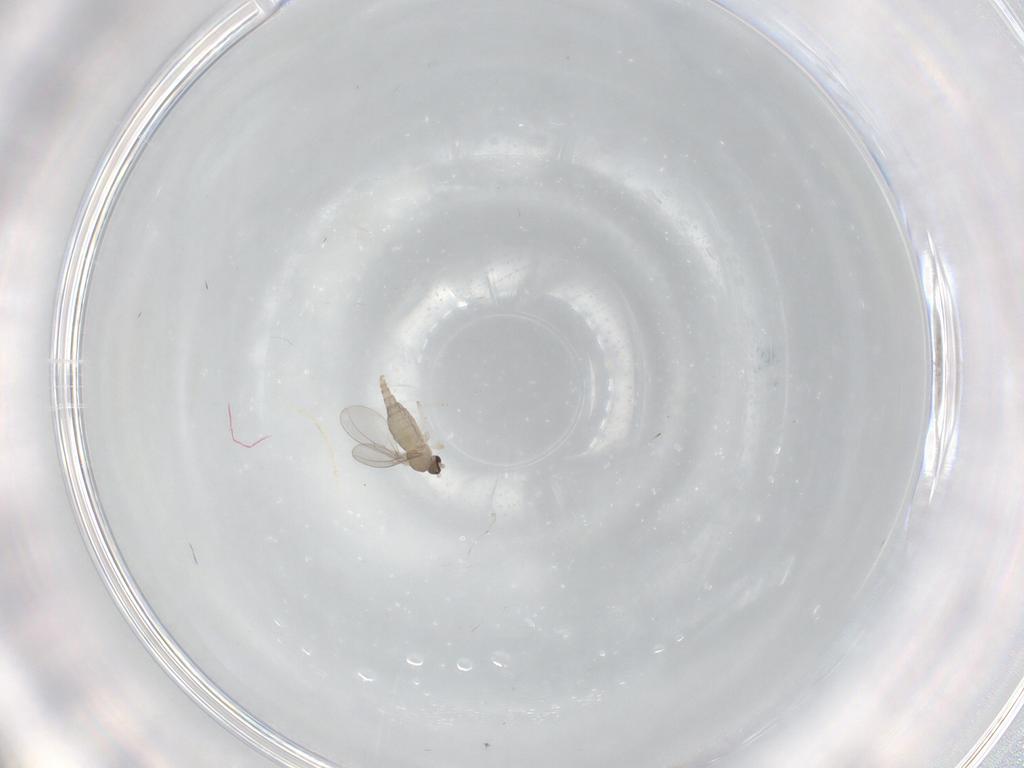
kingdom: Animalia
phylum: Arthropoda
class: Insecta
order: Diptera
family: Cecidomyiidae
